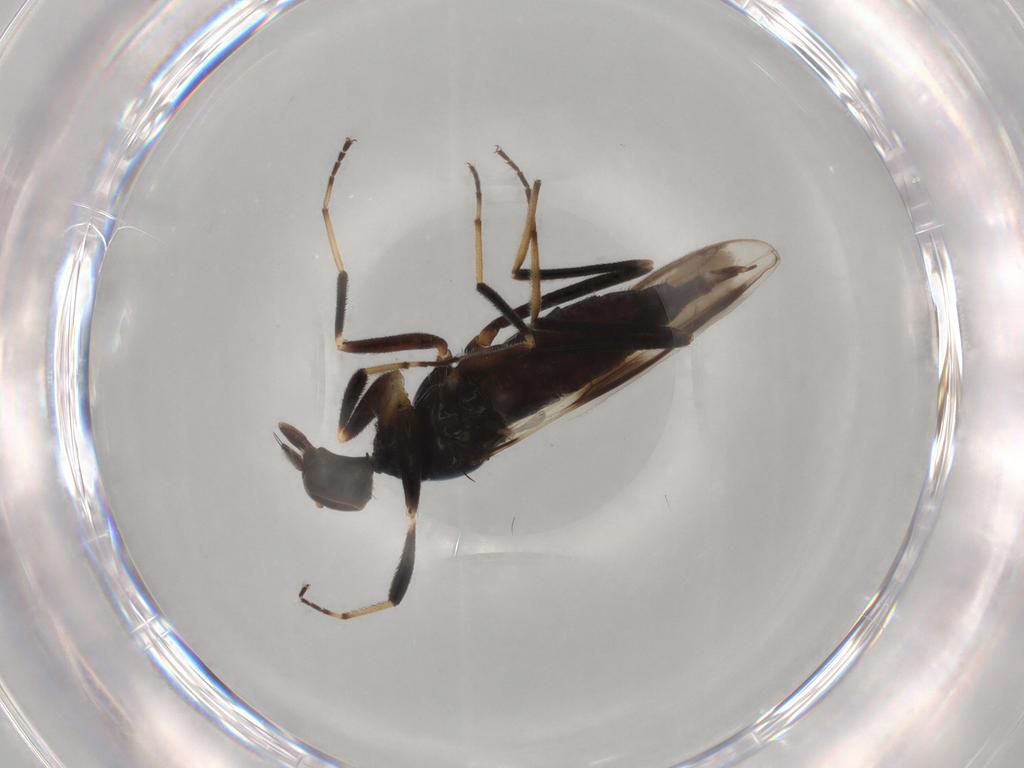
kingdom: Animalia
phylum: Arthropoda
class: Insecta
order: Diptera
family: Hybotidae
